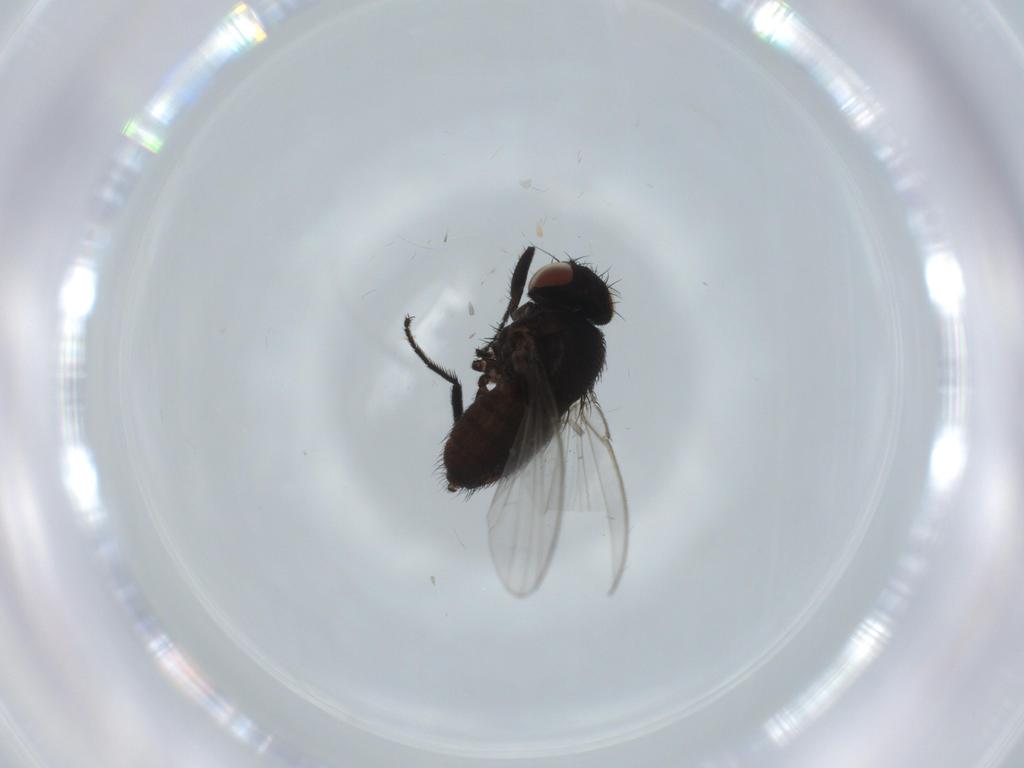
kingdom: Animalia
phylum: Arthropoda
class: Insecta
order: Diptera
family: Milichiidae
